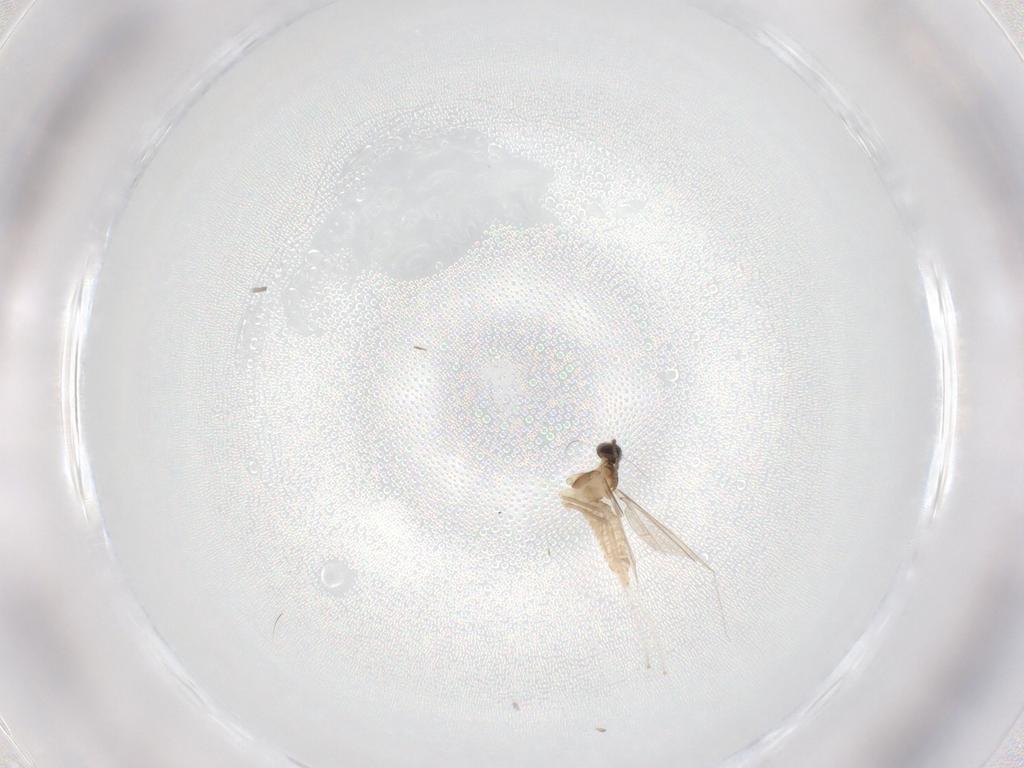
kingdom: Animalia
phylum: Arthropoda
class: Insecta
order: Diptera
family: Cecidomyiidae
